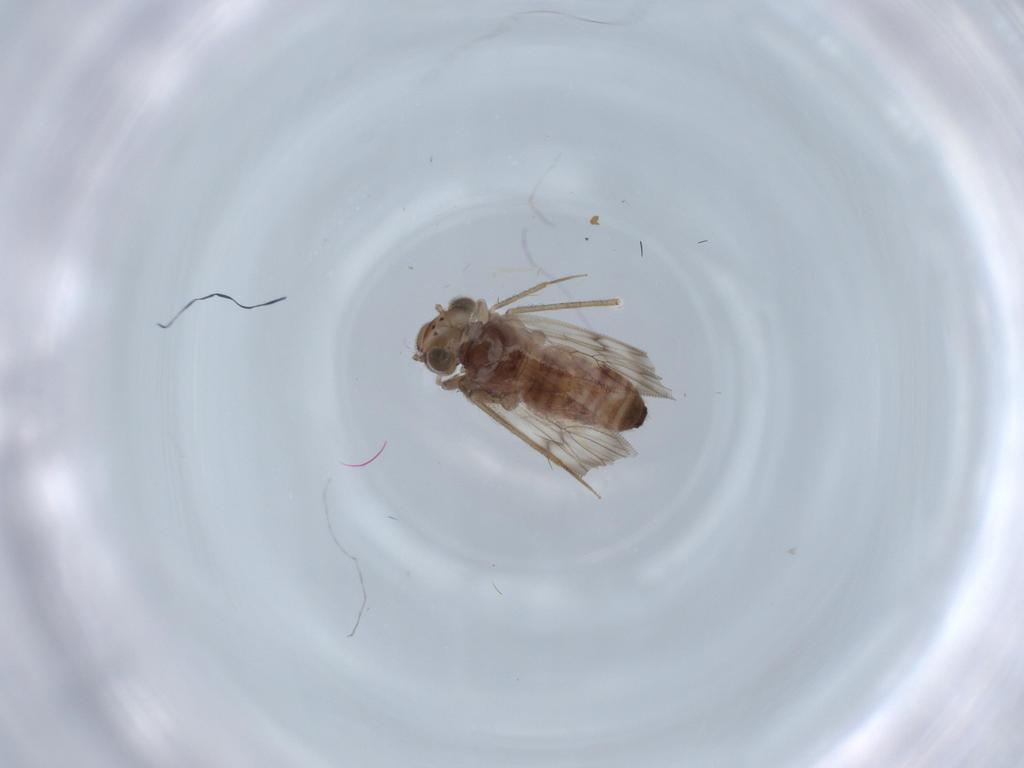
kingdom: Animalia
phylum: Arthropoda
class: Insecta
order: Psocodea
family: Lepidopsocidae
